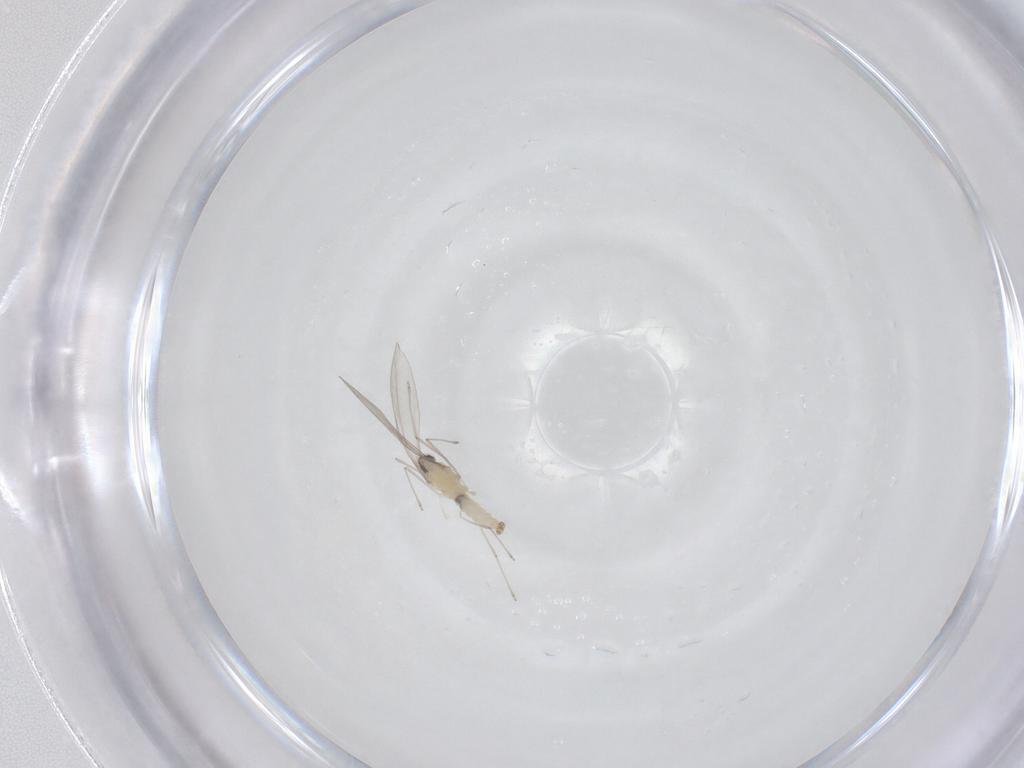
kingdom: Animalia
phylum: Arthropoda
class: Insecta
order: Diptera
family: Cecidomyiidae
